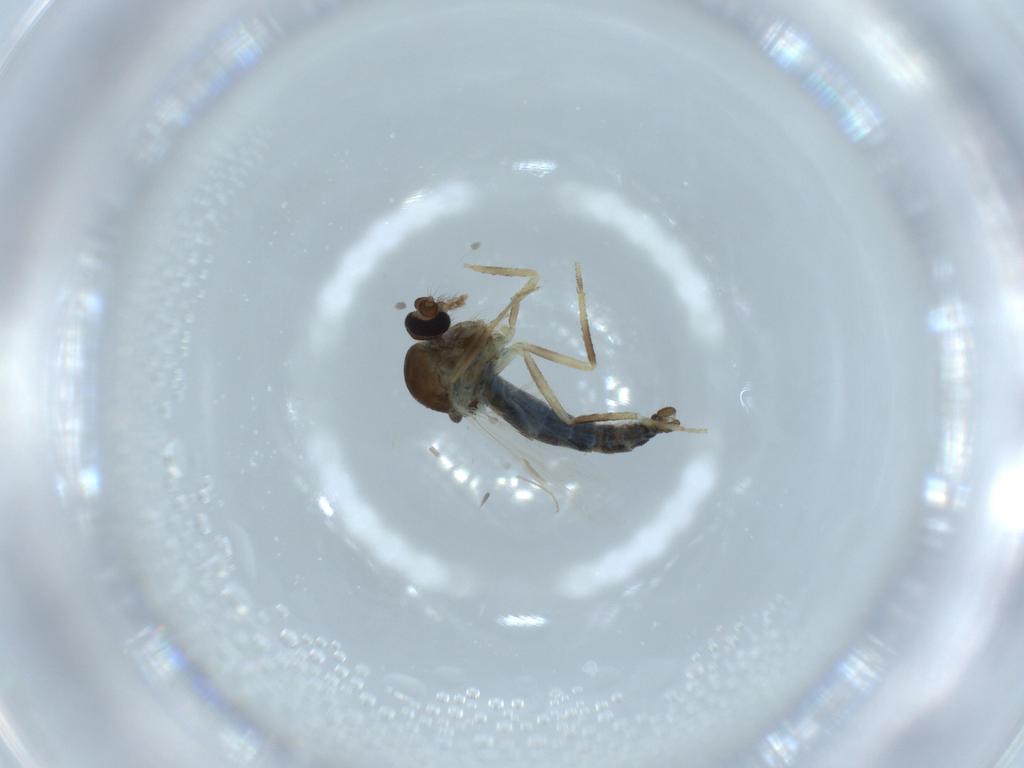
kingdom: Animalia
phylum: Arthropoda
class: Insecta
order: Diptera
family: Ceratopogonidae
